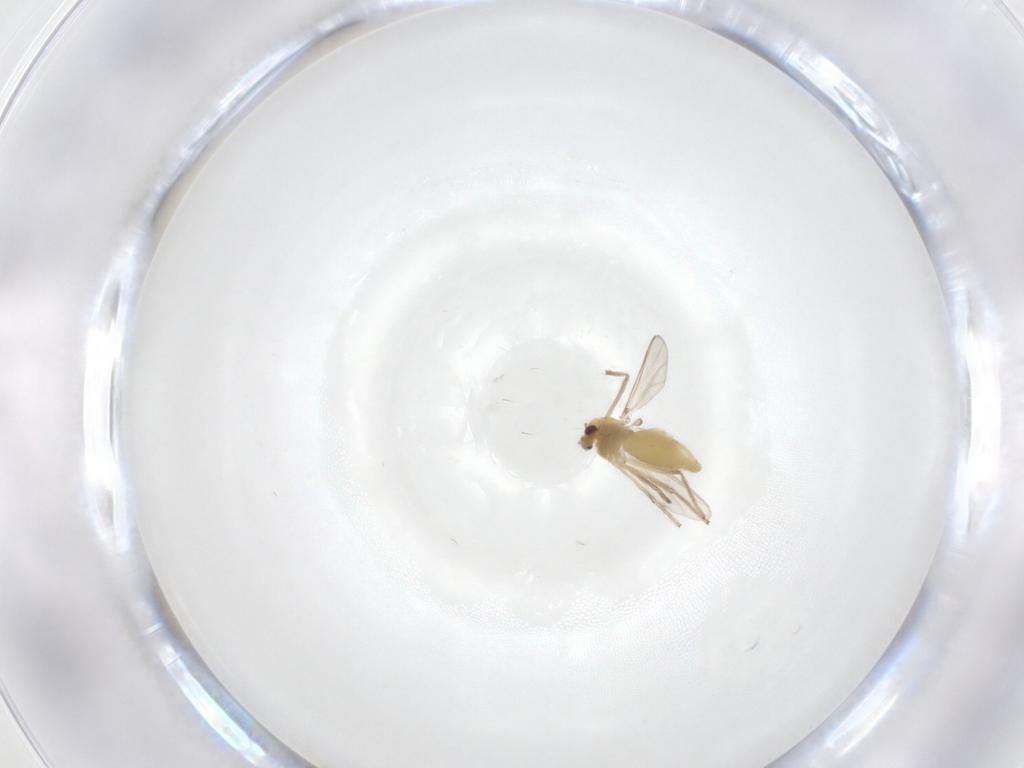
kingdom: Animalia
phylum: Arthropoda
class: Insecta
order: Diptera
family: Chironomidae
